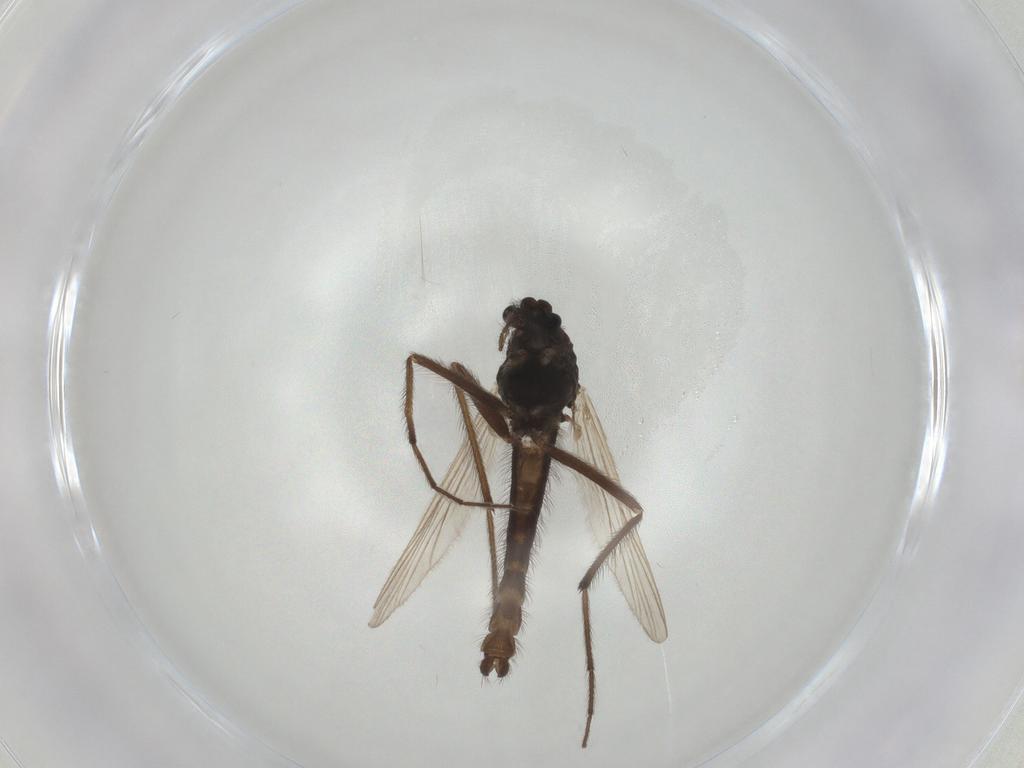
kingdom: Animalia
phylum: Arthropoda
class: Insecta
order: Diptera
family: Chironomidae
